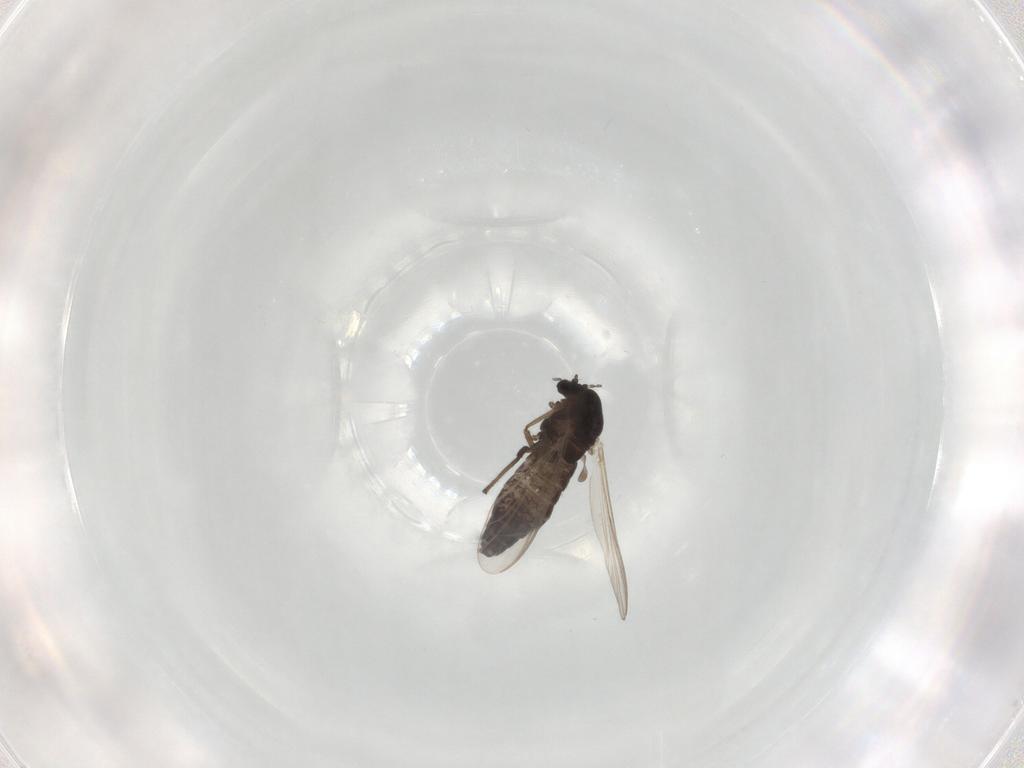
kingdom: Animalia
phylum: Arthropoda
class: Insecta
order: Diptera
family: Chironomidae
